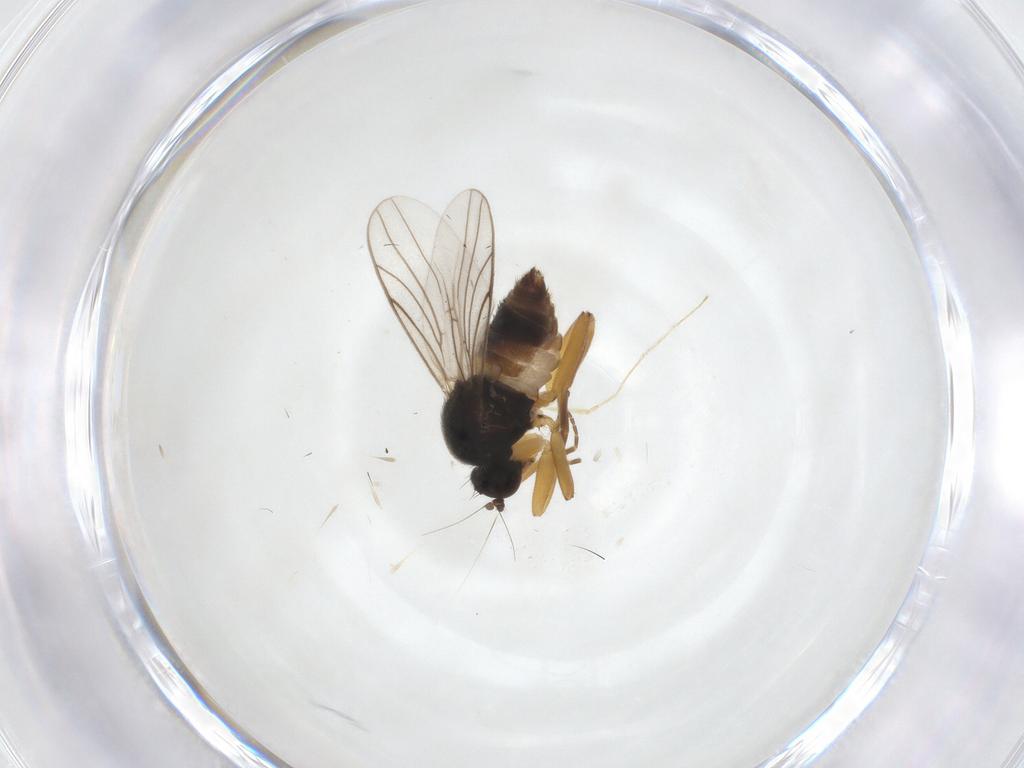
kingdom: Animalia
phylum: Arthropoda
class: Insecta
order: Diptera
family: Hybotidae
